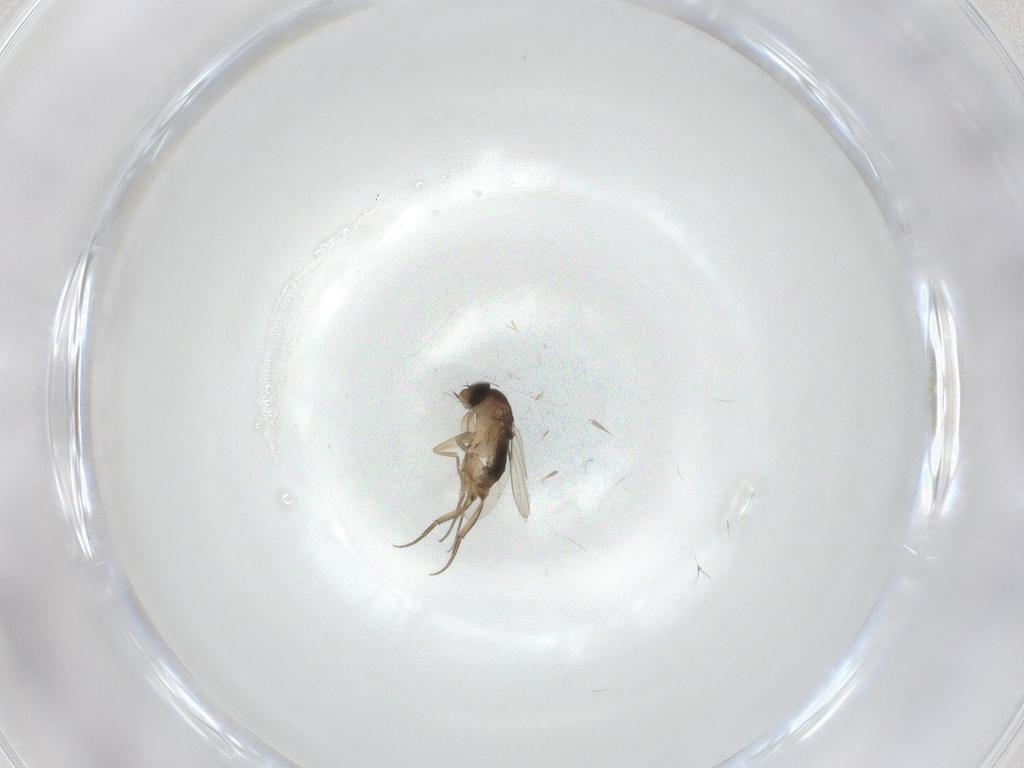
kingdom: Animalia
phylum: Arthropoda
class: Insecta
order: Diptera
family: Phoridae
